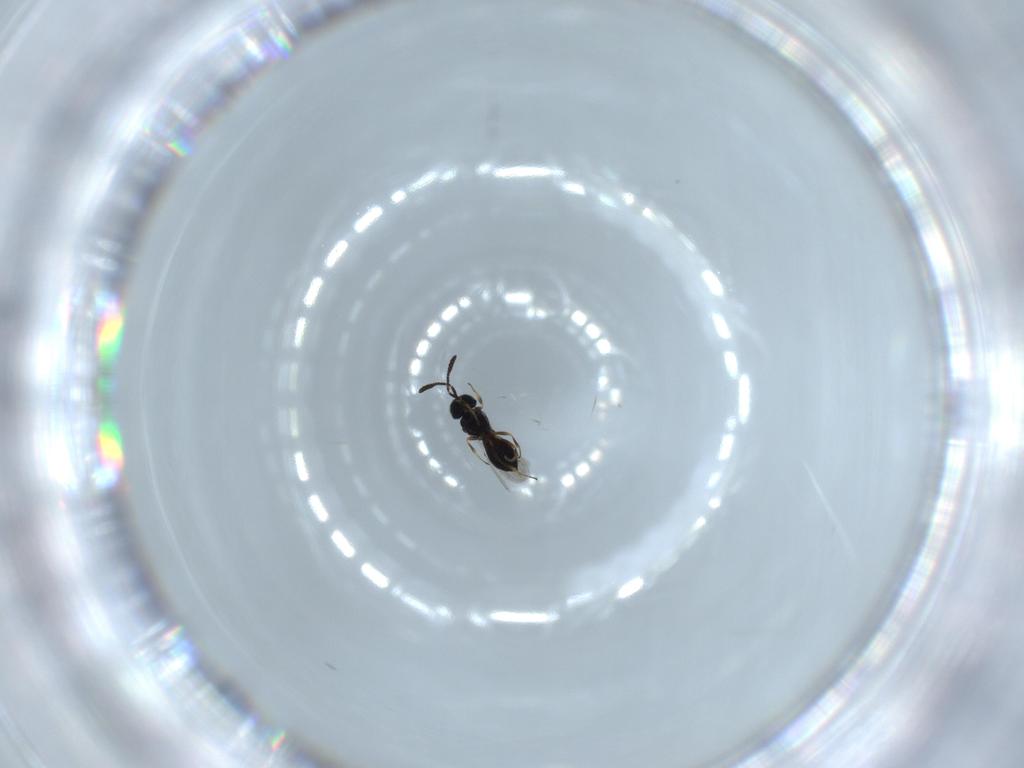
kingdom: Animalia
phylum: Arthropoda
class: Insecta
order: Hymenoptera
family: Scelionidae
